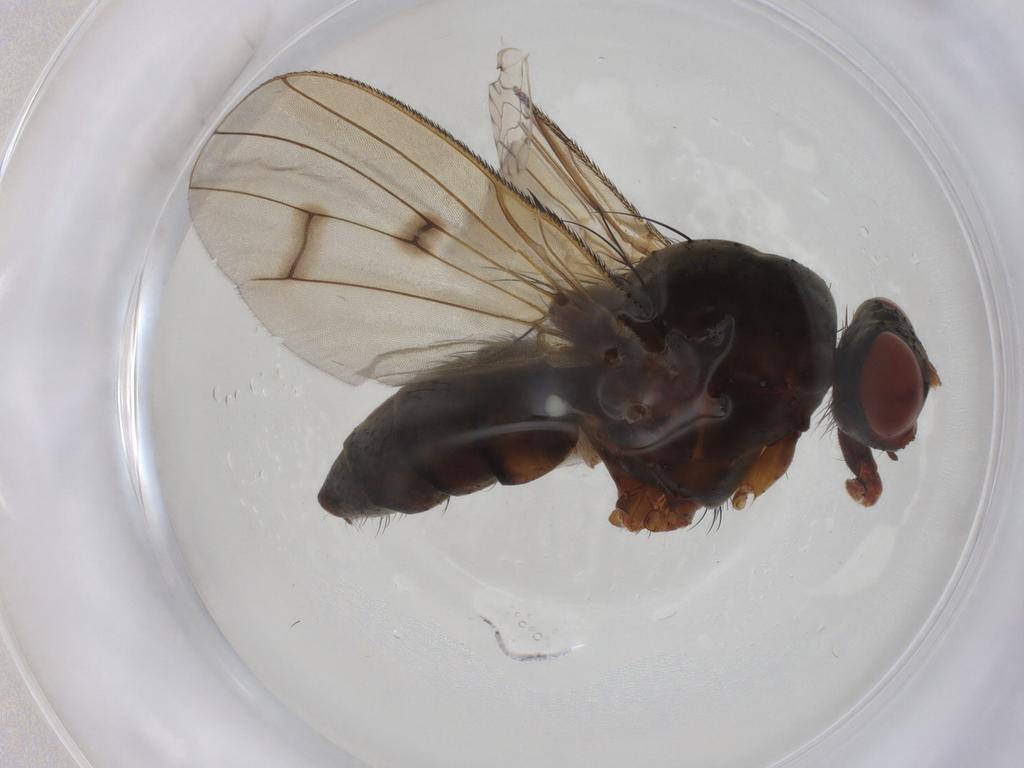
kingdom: Animalia
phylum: Arthropoda
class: Insecta
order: Diptera
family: Anthomyiidae
